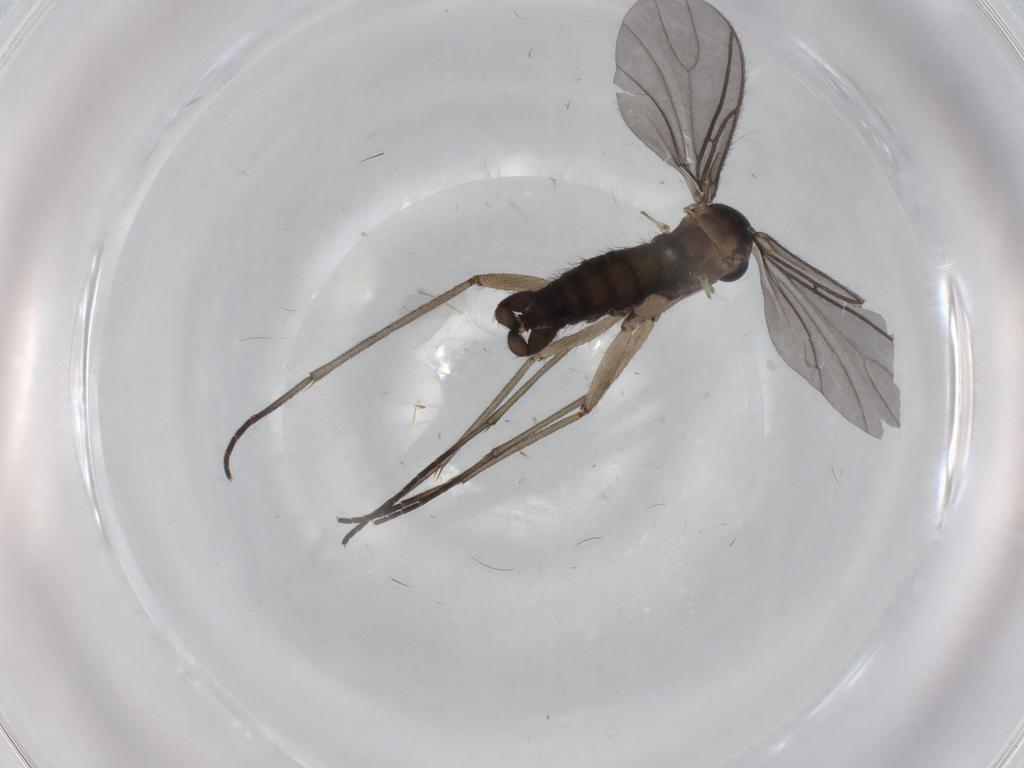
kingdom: Animalia
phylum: Arthropoda
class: Insecta
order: Diptera
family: Sciaridae
